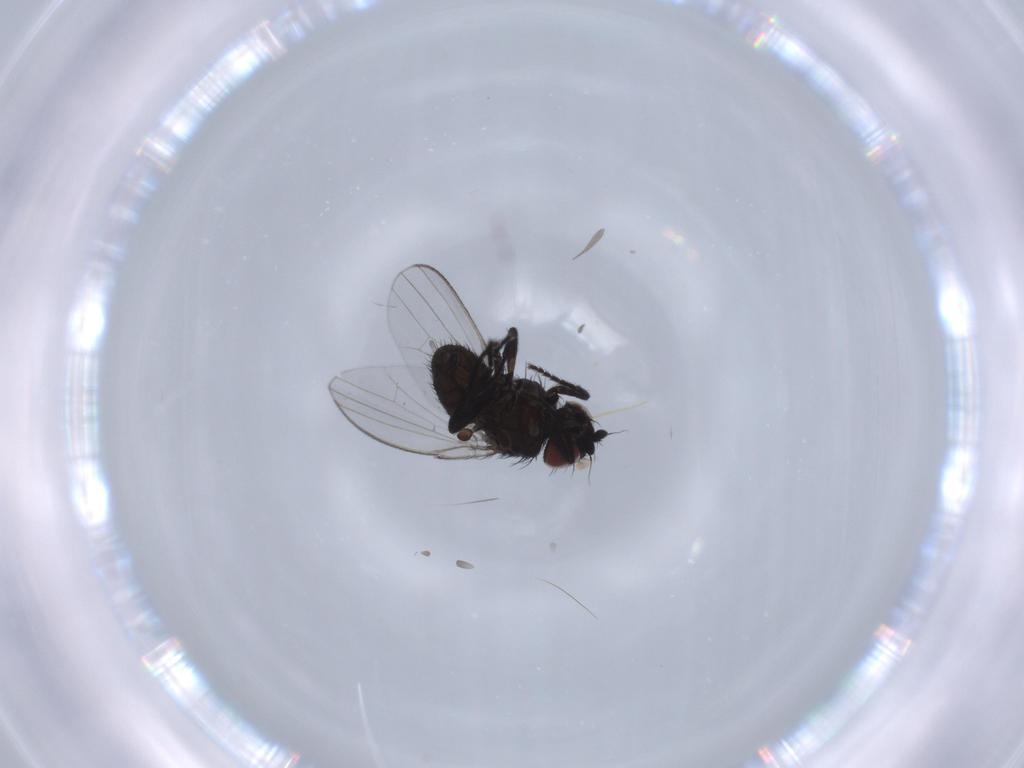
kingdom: Animalia
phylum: Arthropoda
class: Insecta
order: Diptera
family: Milichiidae
